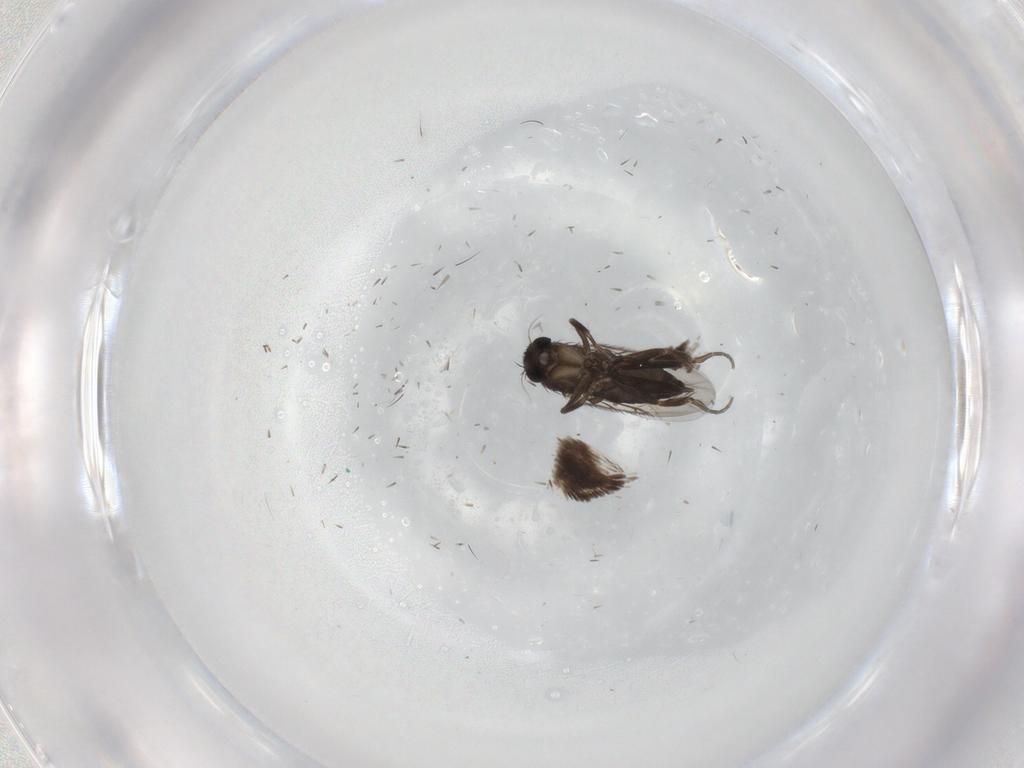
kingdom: Animalia
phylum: Arthropoda
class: Insecta
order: Diptera
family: Phoridae
